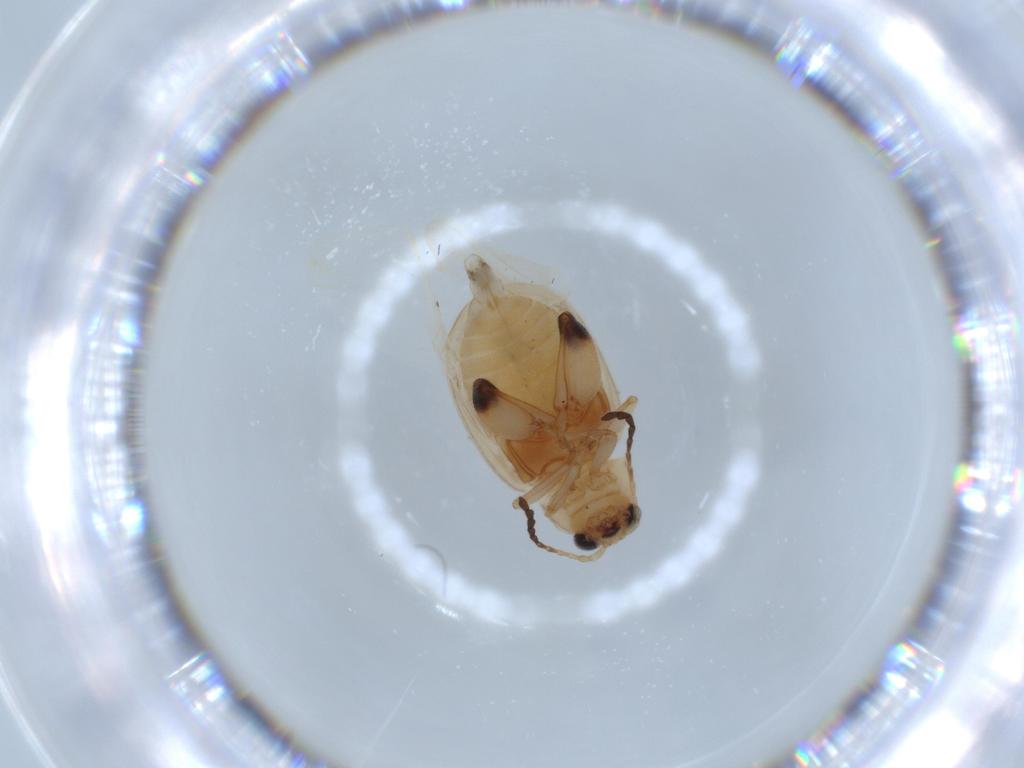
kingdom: Animalia
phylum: Arthropoda
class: Insecta
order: Coleoptera
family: Chrysomelidae
